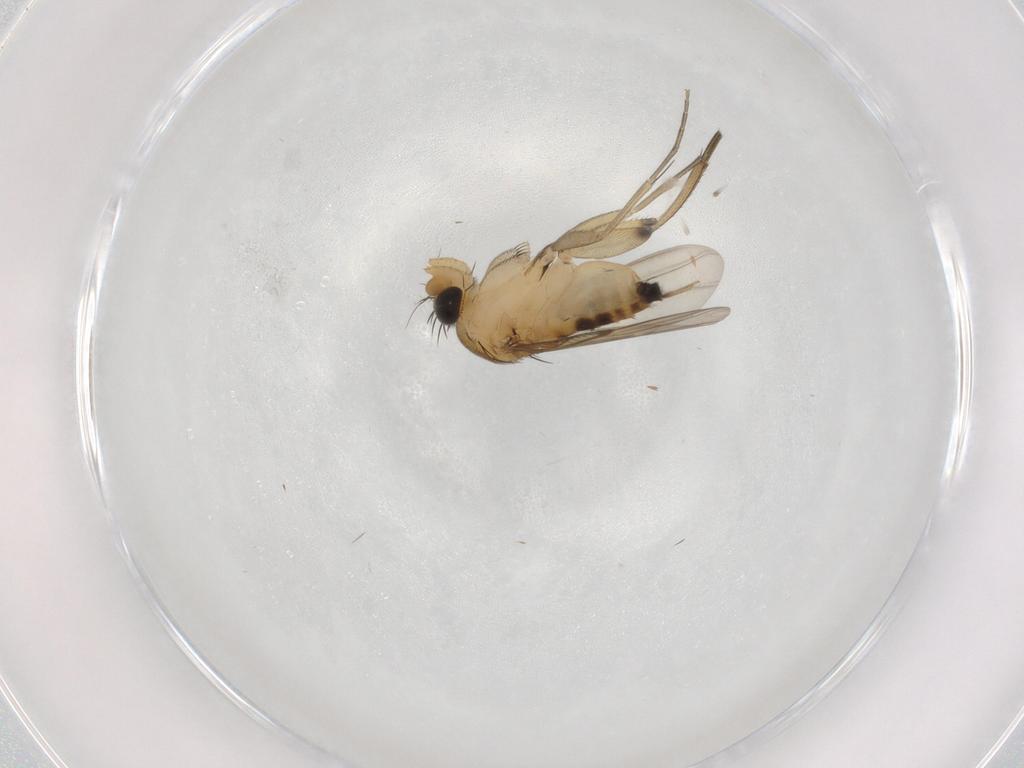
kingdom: Animalia
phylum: Arthropoda
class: Insecta
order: Diptera
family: Phoridae
